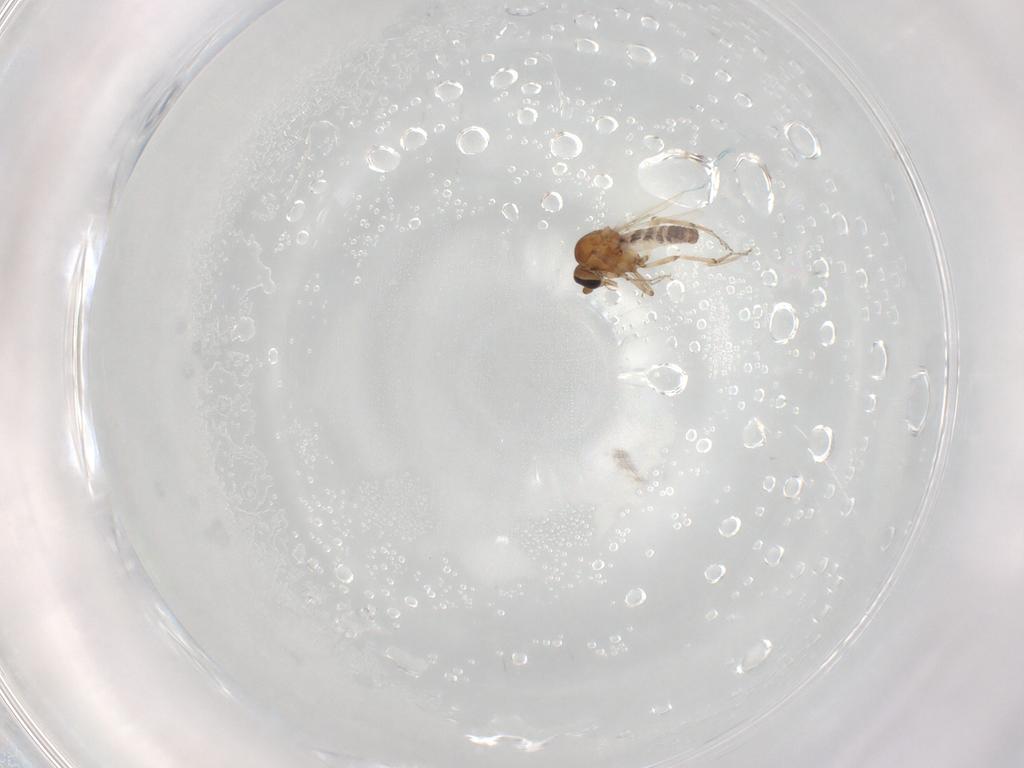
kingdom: Animalia
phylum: Arthropoda
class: Insecta
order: Diptera
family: Ceratopogonidae
